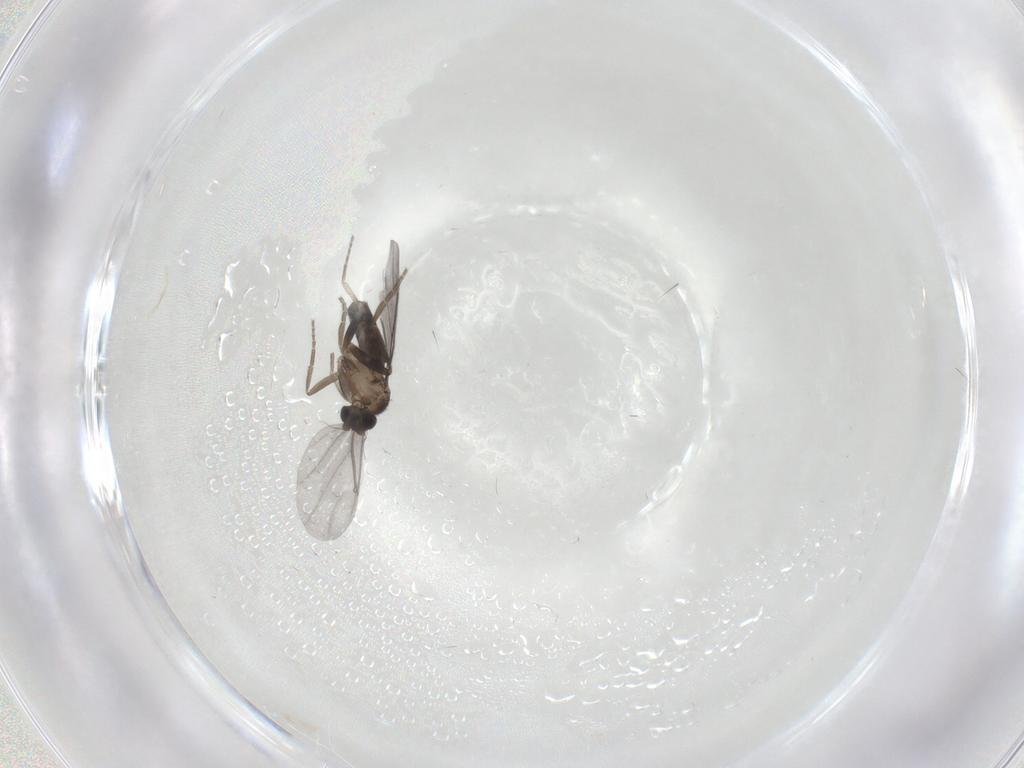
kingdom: Animalia
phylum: Arthropoda
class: Insecta
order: Diptera
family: Phoridae
